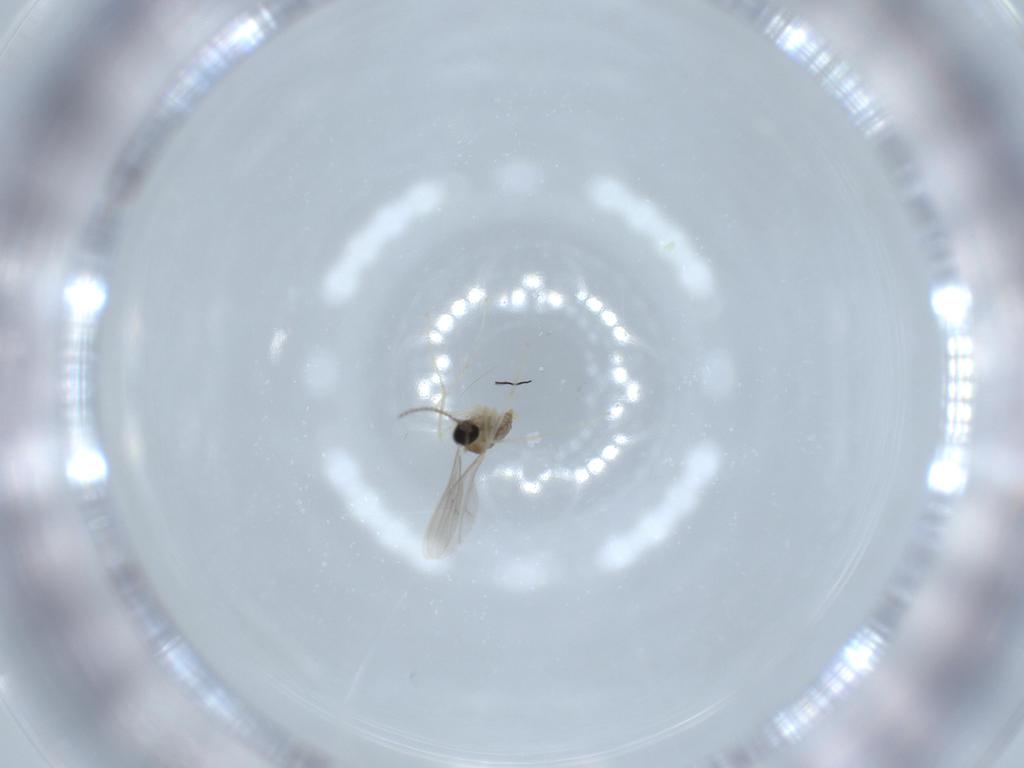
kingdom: Animalia
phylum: Arthropoda
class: Insecta
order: Diptera
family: Cecidomyiidae
